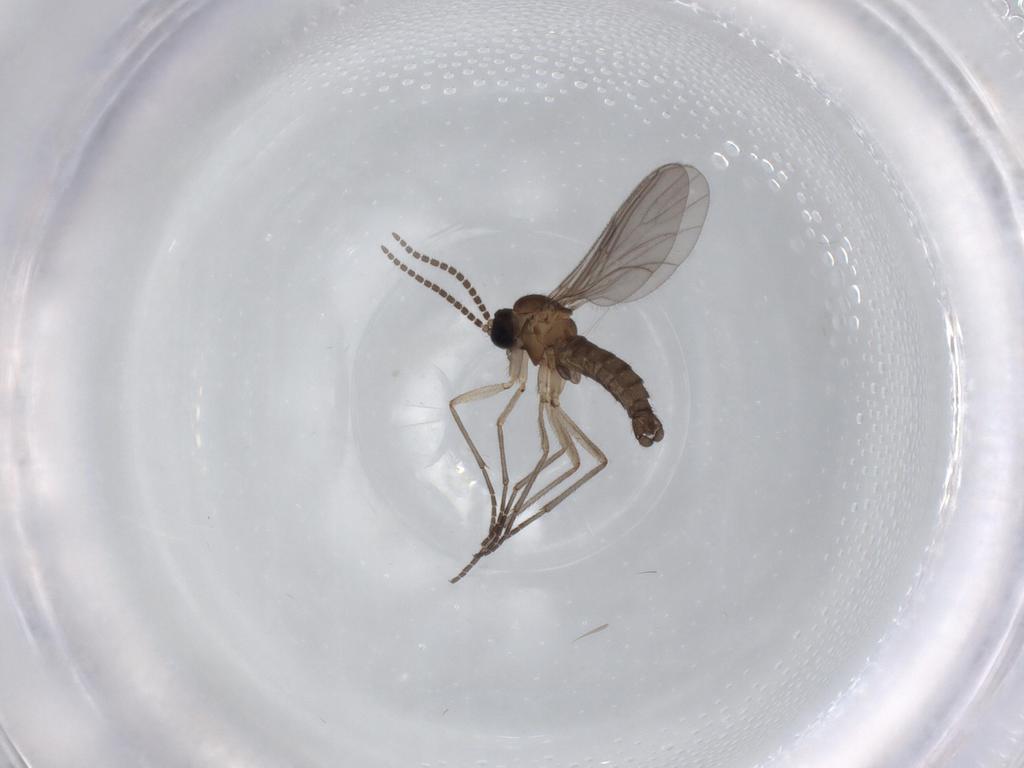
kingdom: Animalia
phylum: Arthropoda
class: Insecta
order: Diptera
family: Sciaridae
